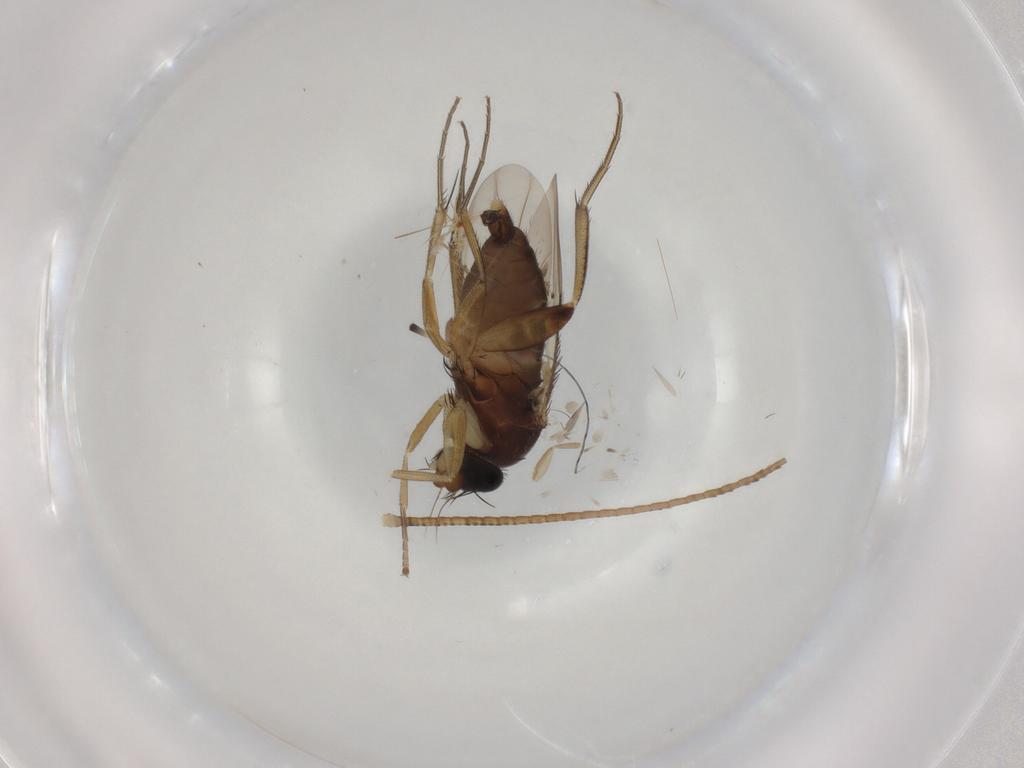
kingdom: Animalia
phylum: Arthropoda
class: Insecta
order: Diptera
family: Phoridae
